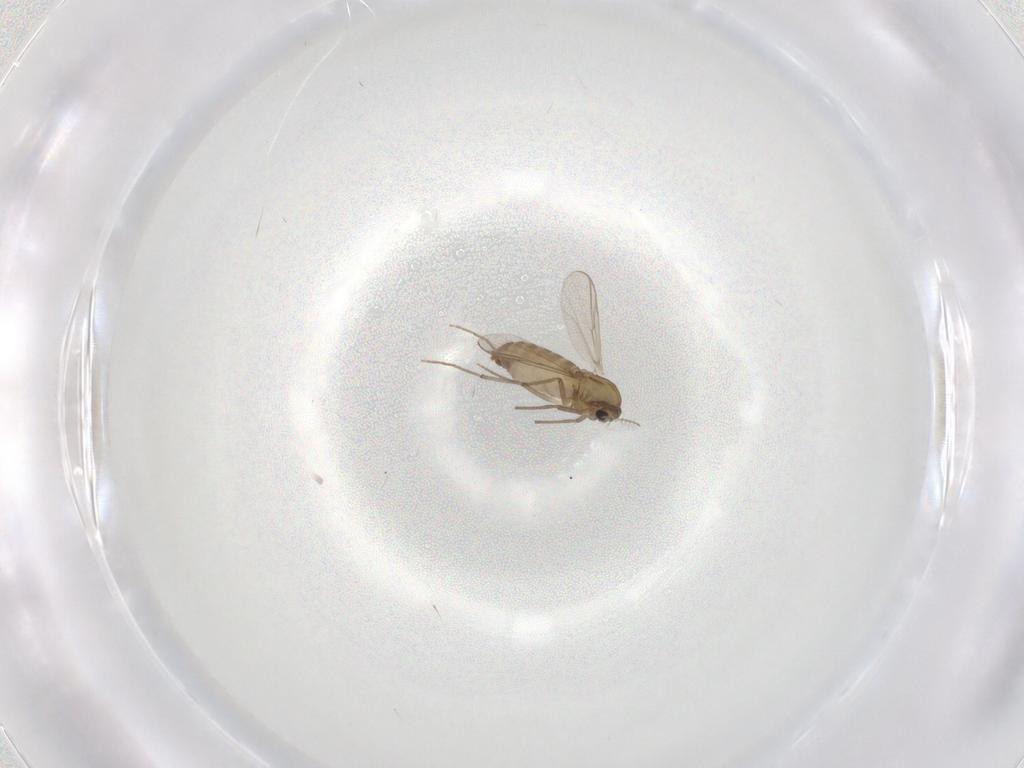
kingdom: Animalia
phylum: Arthropoda
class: Insecta
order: Diptera
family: Chironomidae
